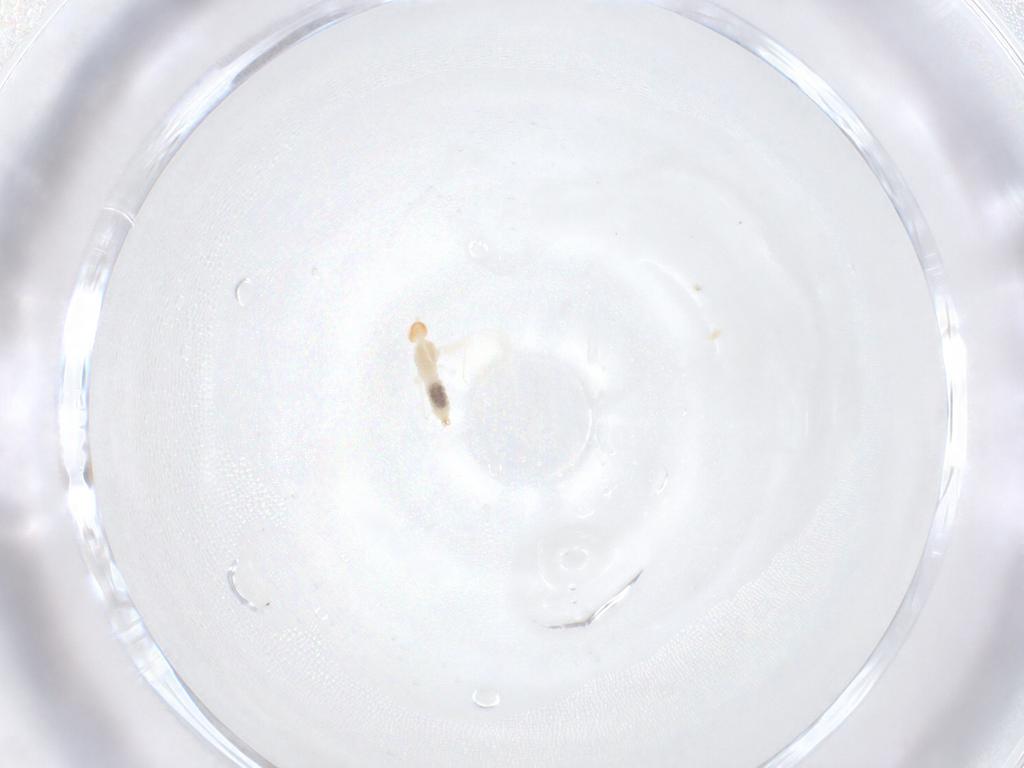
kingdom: Animalia
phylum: Arthropoda
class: Insecta
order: Diptera
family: Cecidomyiidae
